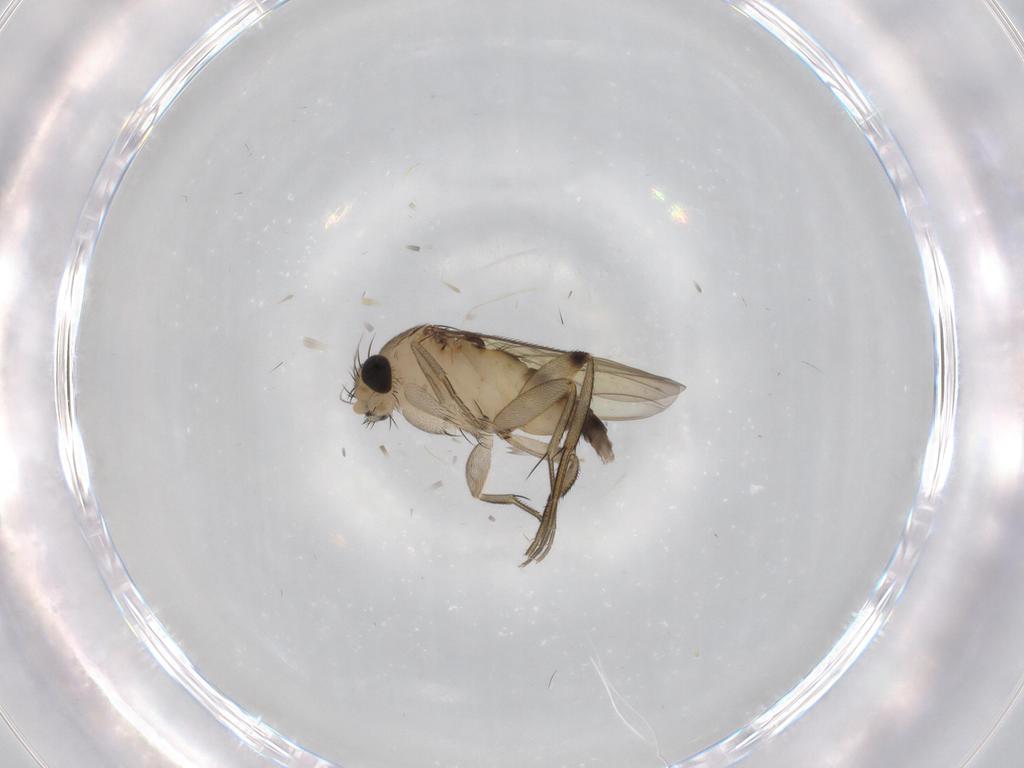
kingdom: Animalia
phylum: Arthropoda
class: Insecta
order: Diptera
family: Phoridae
